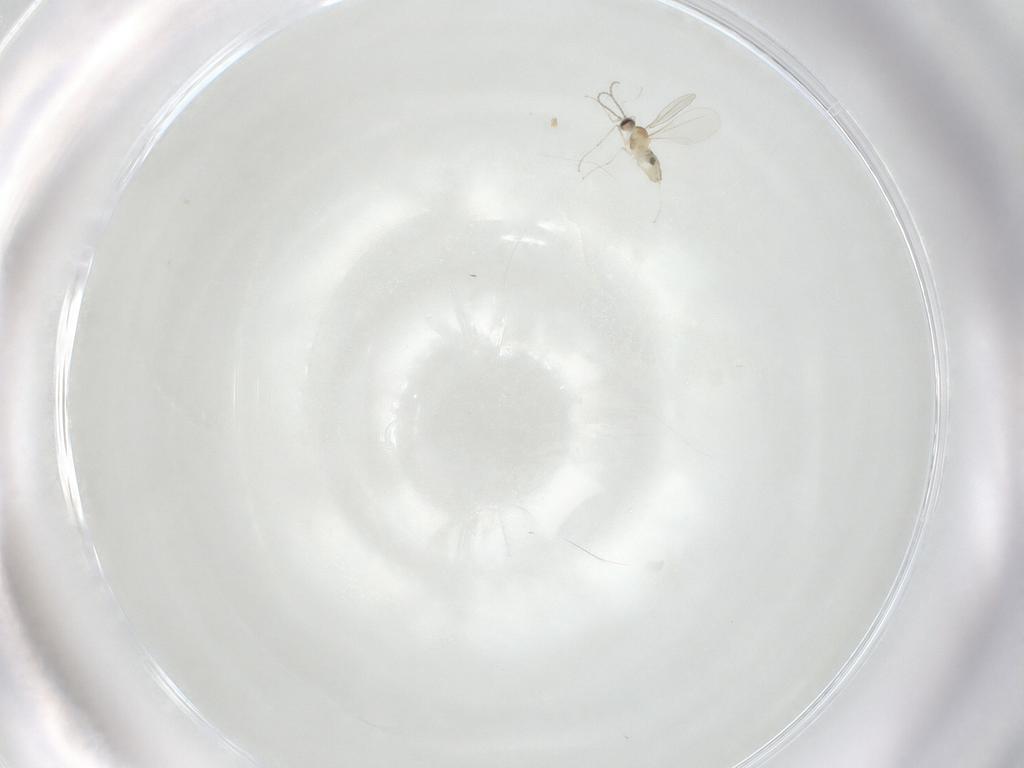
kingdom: Animalia
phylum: Arthropoda
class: Insecta
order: Diptera
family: Cecidomyiidae
